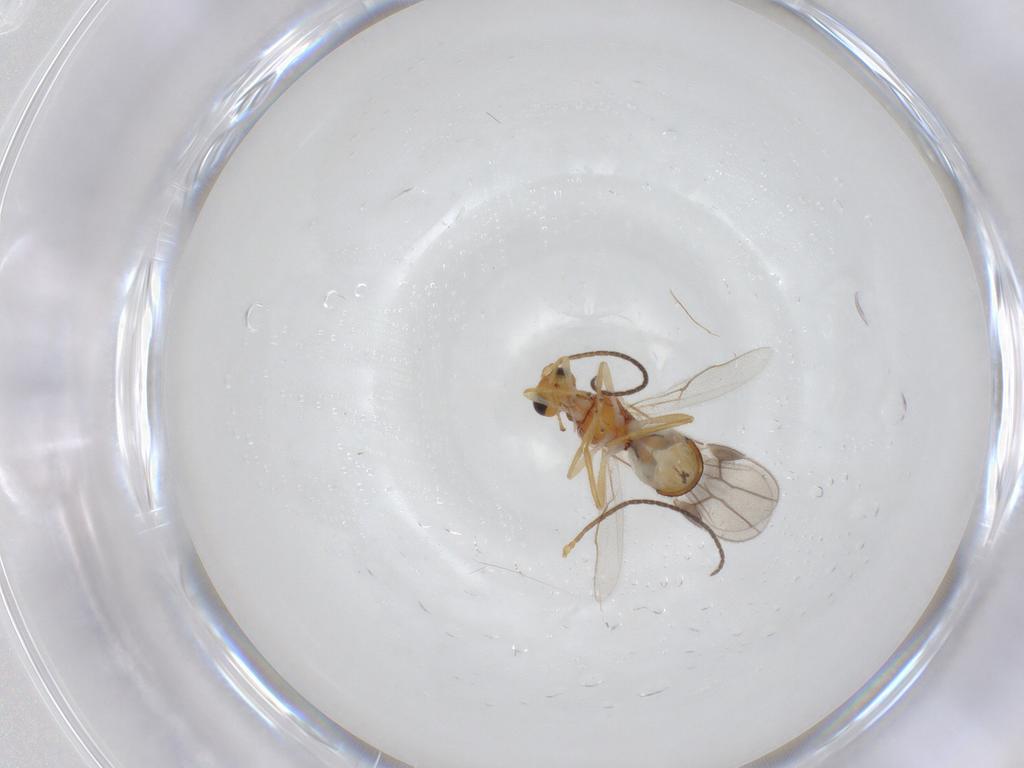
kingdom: Animalia
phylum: Arthropoda
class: Insecta
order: Hymenoptera
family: Braconidae
